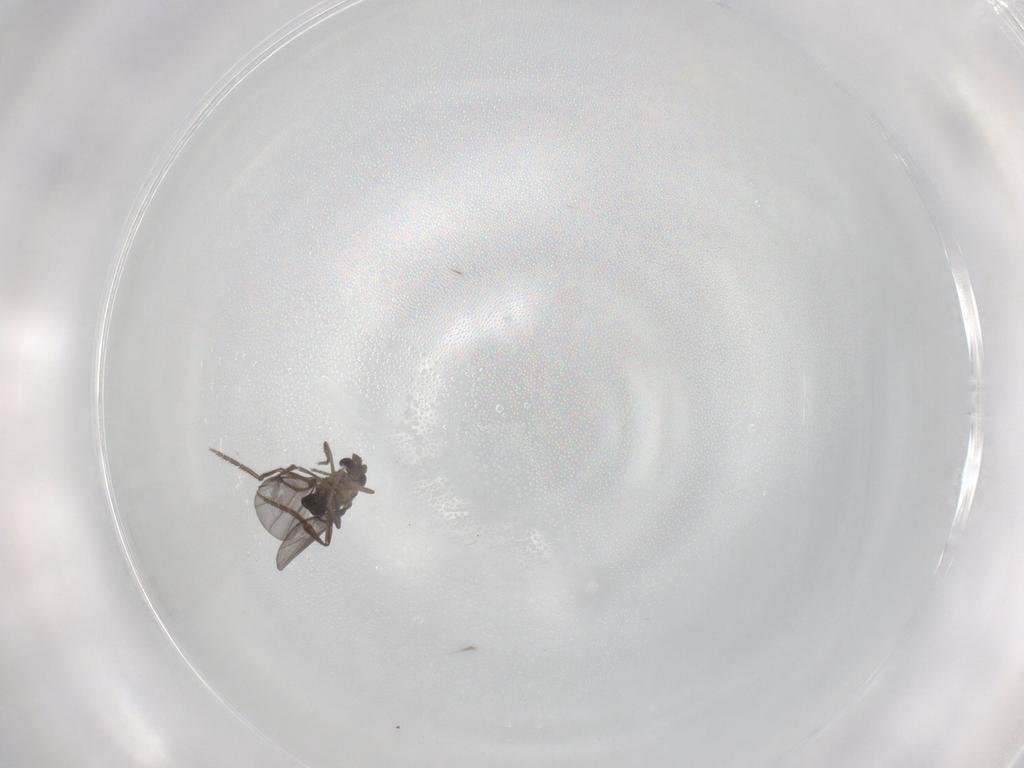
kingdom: Animalia
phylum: Arthropoda
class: Insecta
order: Diptera
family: Phoridae
